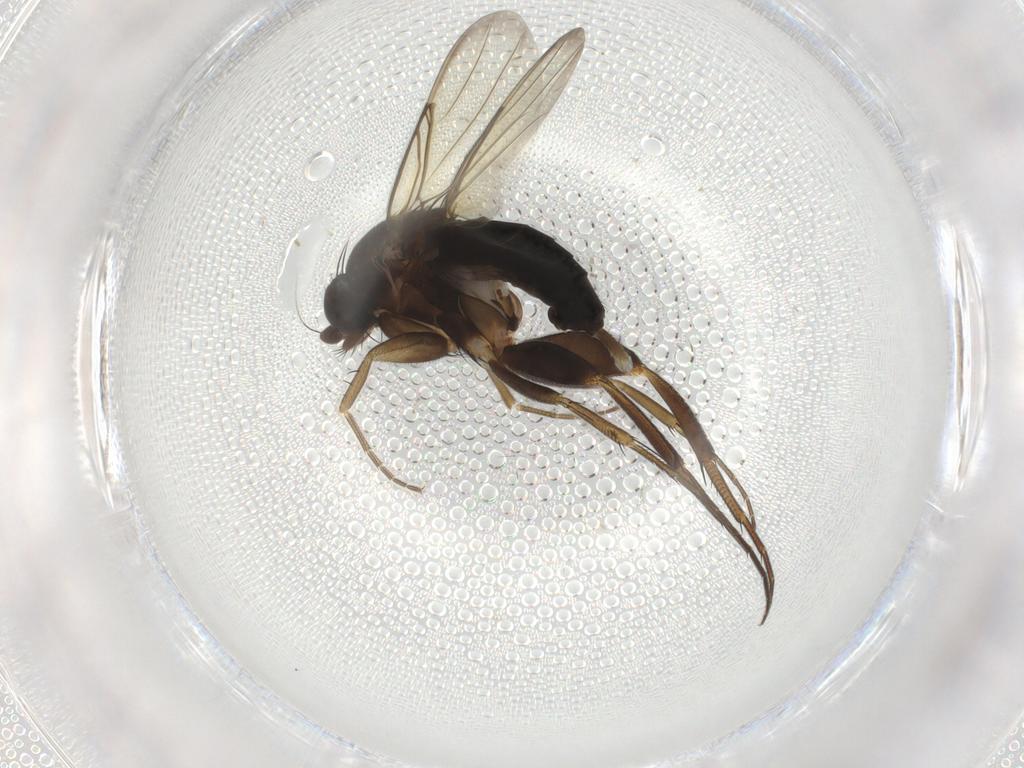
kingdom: Animalia
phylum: Arthropoda
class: Insecta
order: Diptera
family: Phoridae
